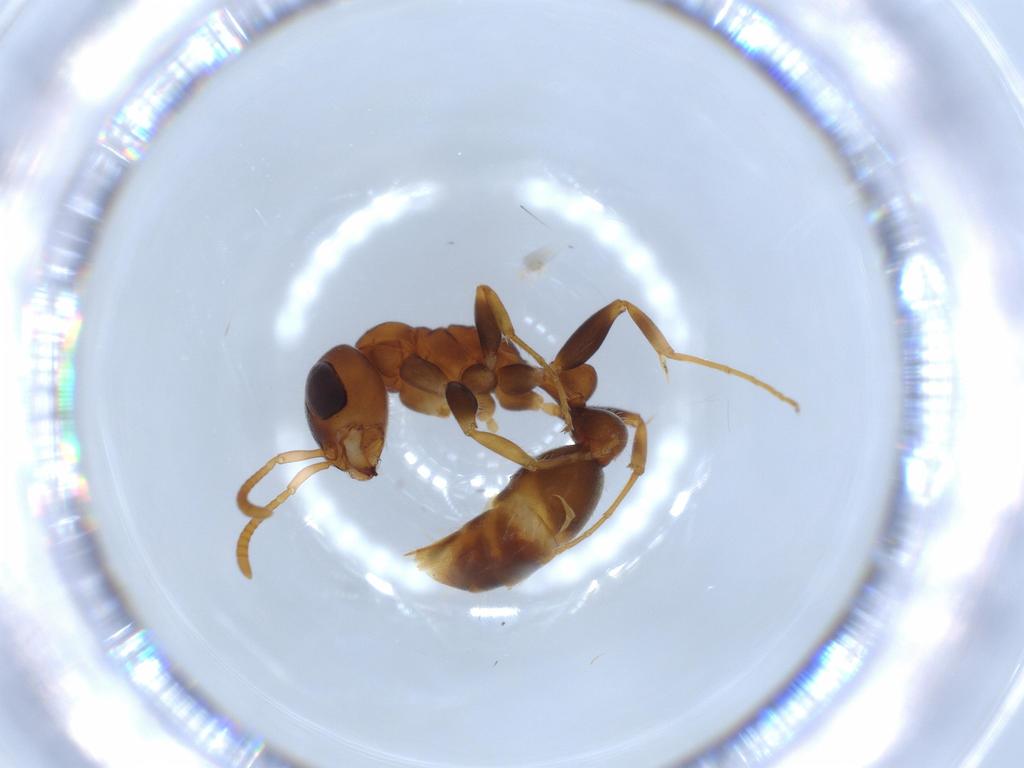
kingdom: Animalia
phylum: Arthropoda
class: Insecta
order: Hymenoptera
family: Formicidae
